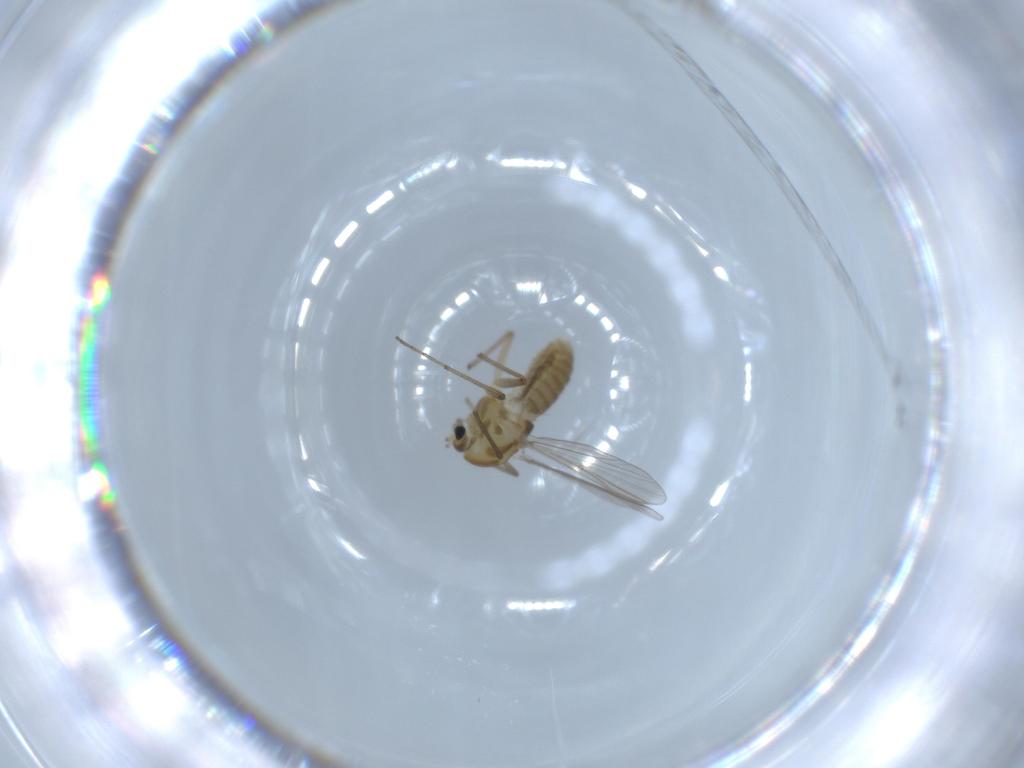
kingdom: Animalia
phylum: Arthropoda
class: Insecta
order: Diptera
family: Chironomidae
